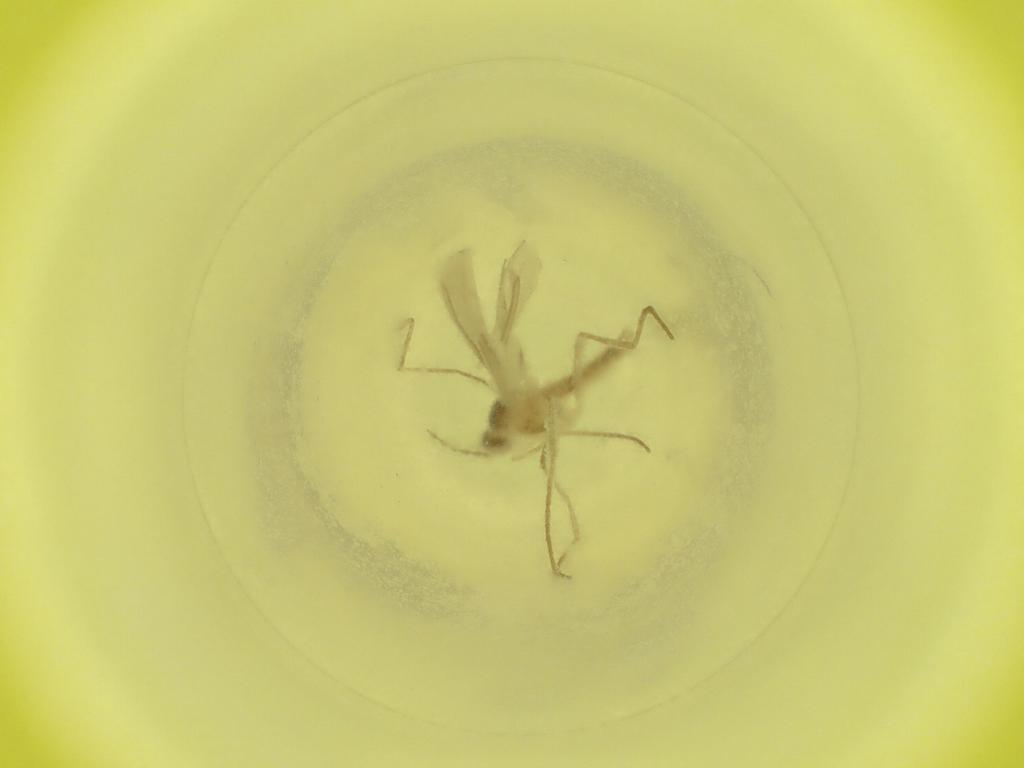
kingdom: Animalia
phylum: Arthropoda
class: Insecta
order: Diptera
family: Cecidomyiidae
